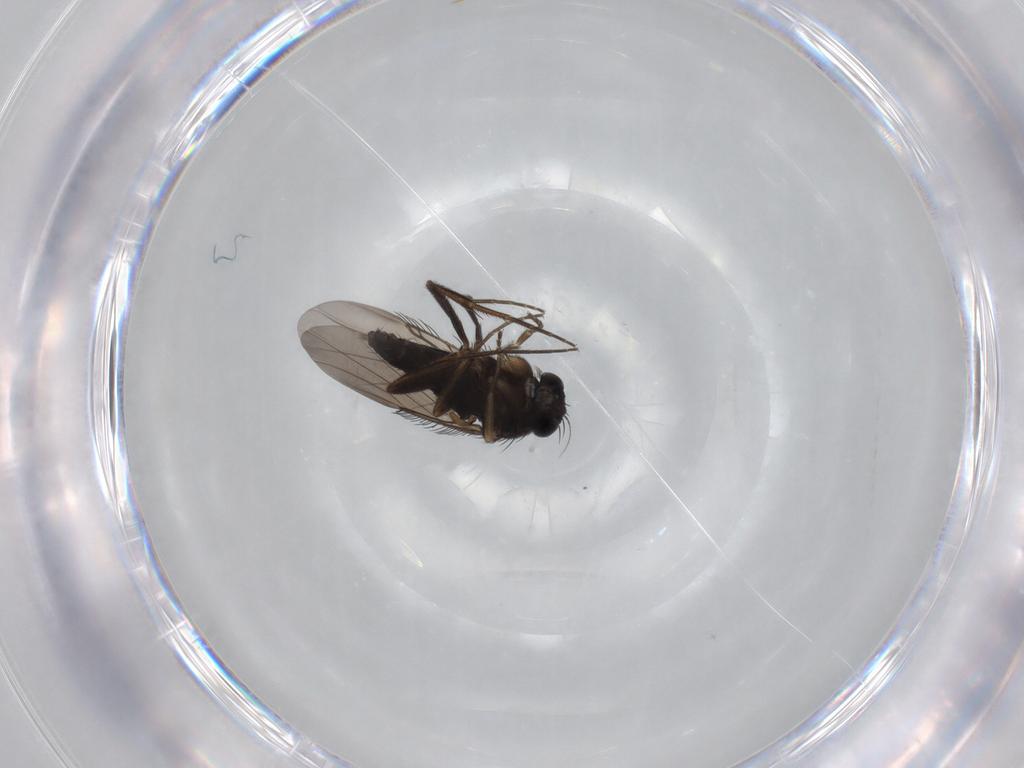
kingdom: Animalia
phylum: Arthropoda
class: Insecta
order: Diptera
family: Phoridae
